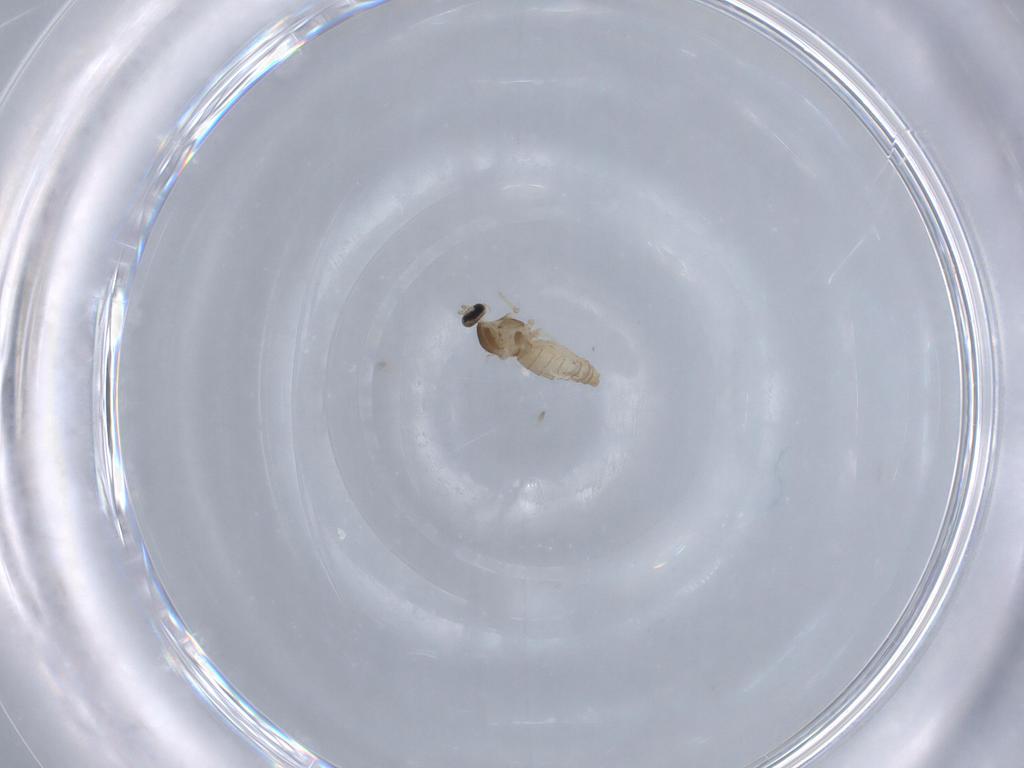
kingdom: Animalia
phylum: Arthropoda
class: Insecta
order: Diptera
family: Cecidomyiidae
